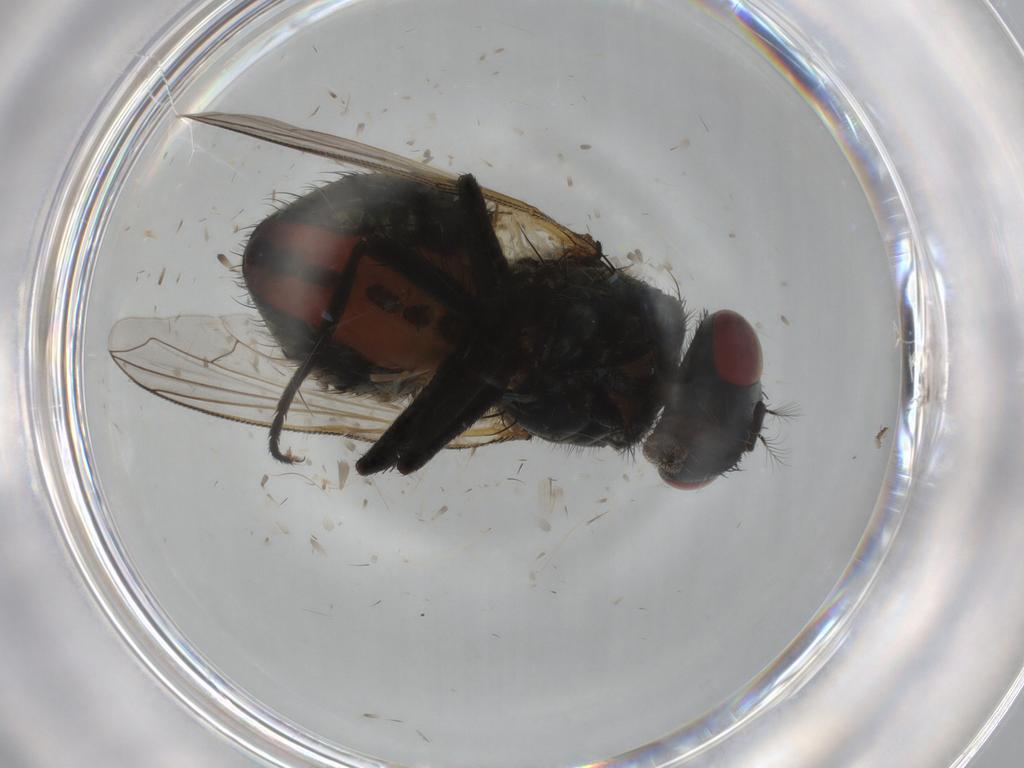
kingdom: Animalia
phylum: Arthropoda
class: Insecta
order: Diptera
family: Muscidae
